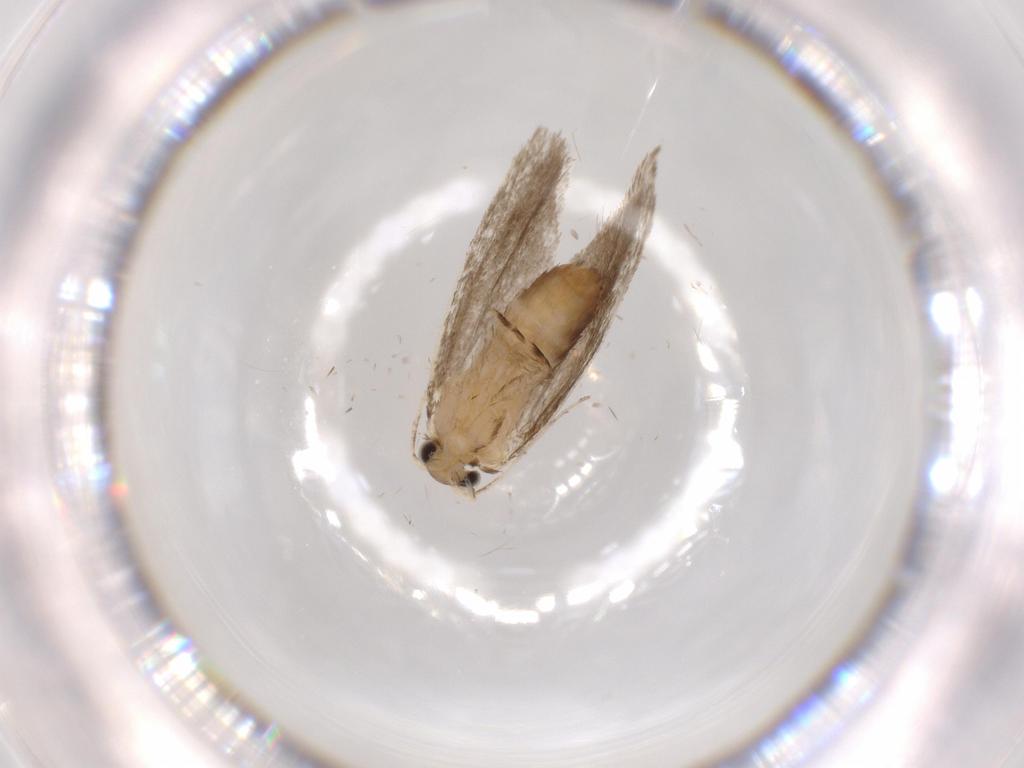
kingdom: Animalia
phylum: Arthropoda
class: Insecta
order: Lepidoptera
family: Tineidae
